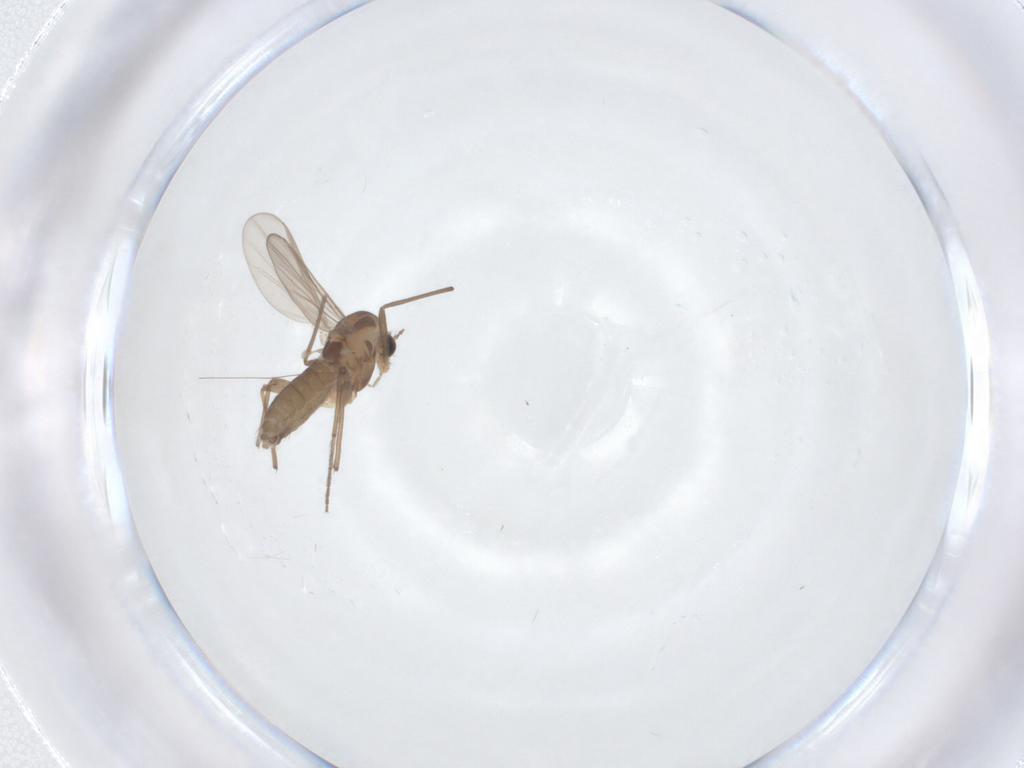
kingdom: Animalia
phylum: Arthropoda
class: Insecta
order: Diptera
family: Chironomidae
